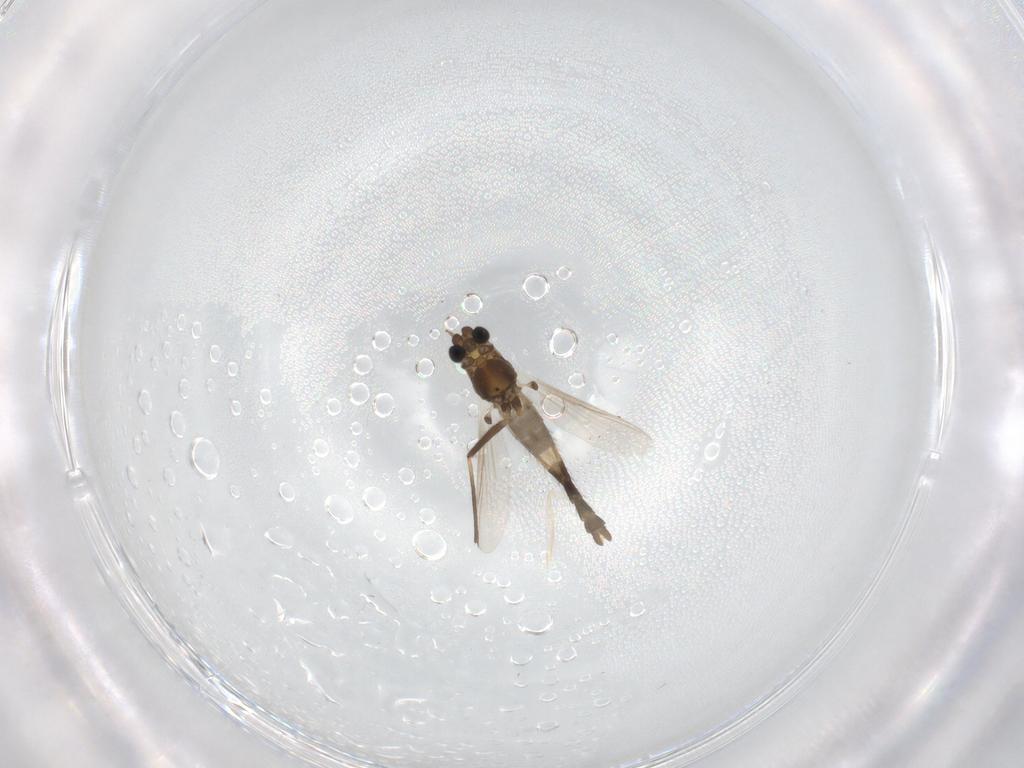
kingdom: Animalia
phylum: Arthropoda
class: Insecta
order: Diptera
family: Chironomidae
